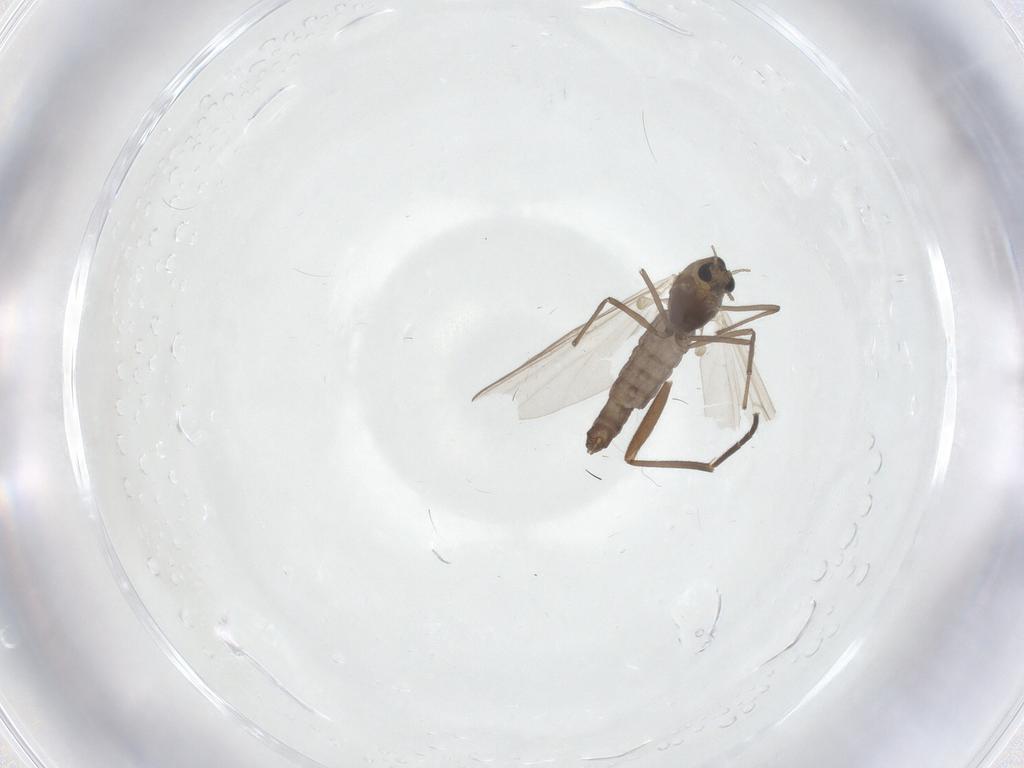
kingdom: Animalia
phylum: Arthropoda
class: Insecta
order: Diptera
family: Chironomidae
